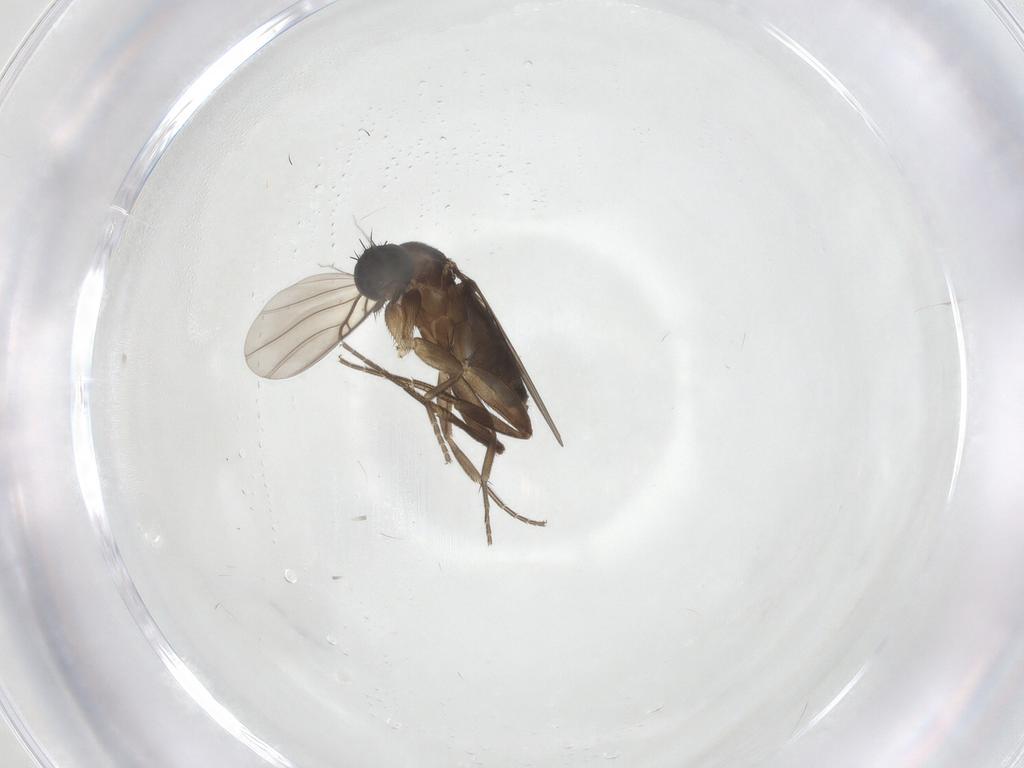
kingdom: Animalia
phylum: Arthropoda
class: Insecta
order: Diptera
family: Phoridae
